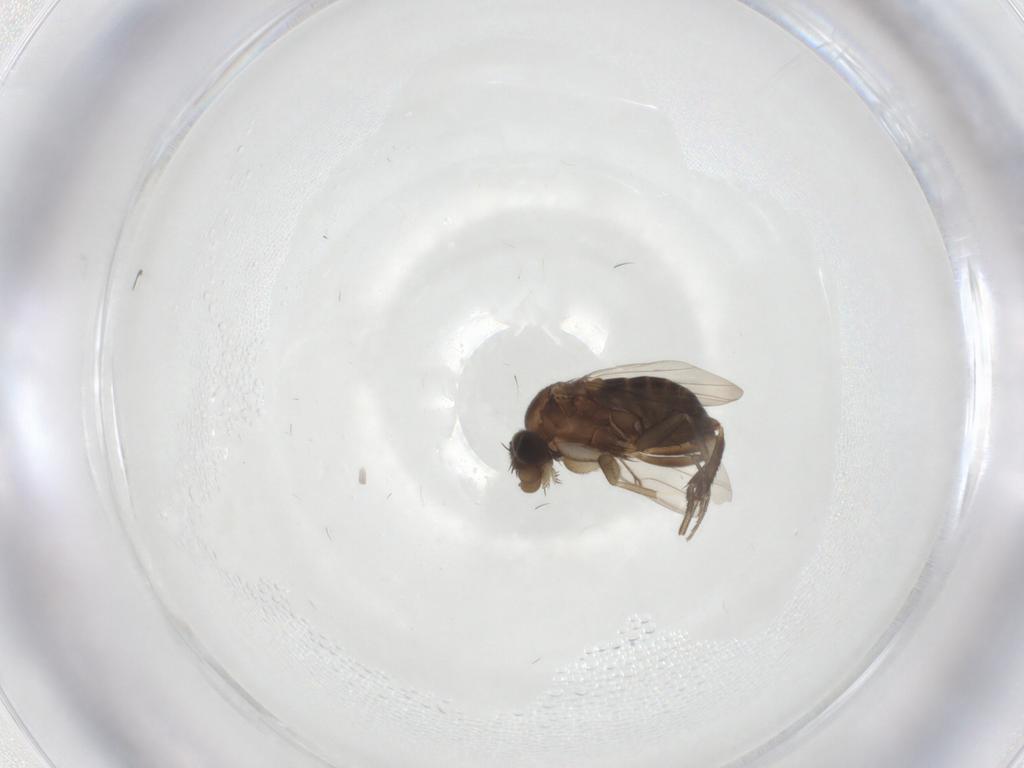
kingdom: Animalia
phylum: Arthropoda
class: Insecta
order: Diptera
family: Phoridae
